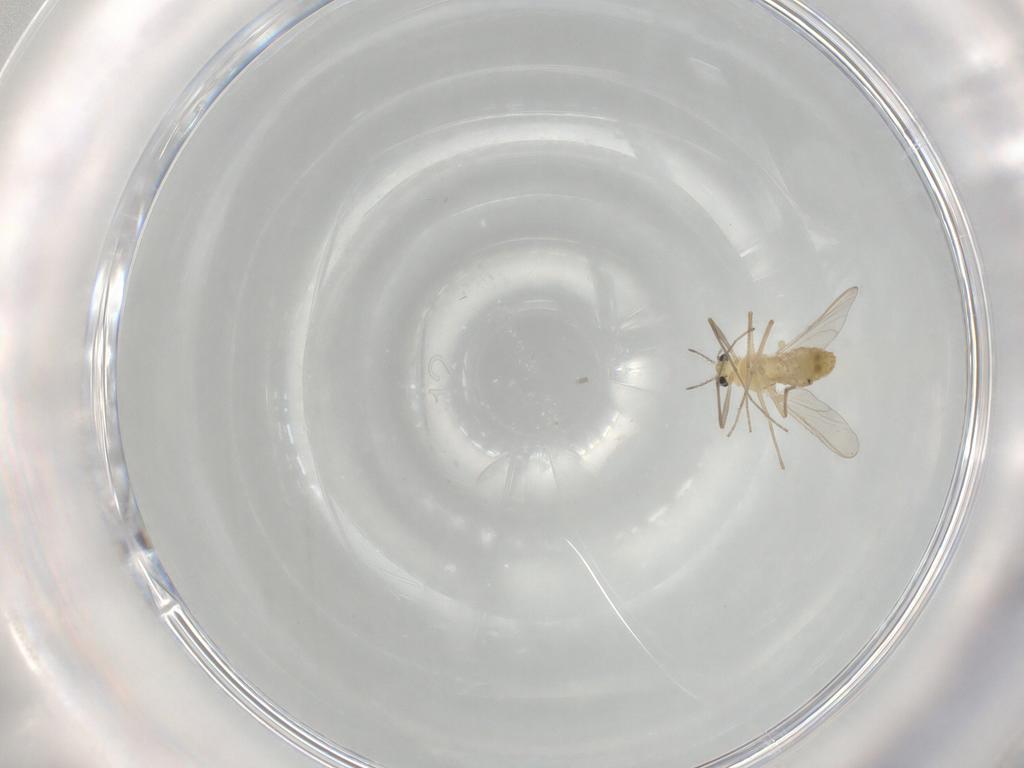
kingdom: Animalia
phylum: Arthropoda
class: Insecta
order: Diptera
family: Chironomidae
